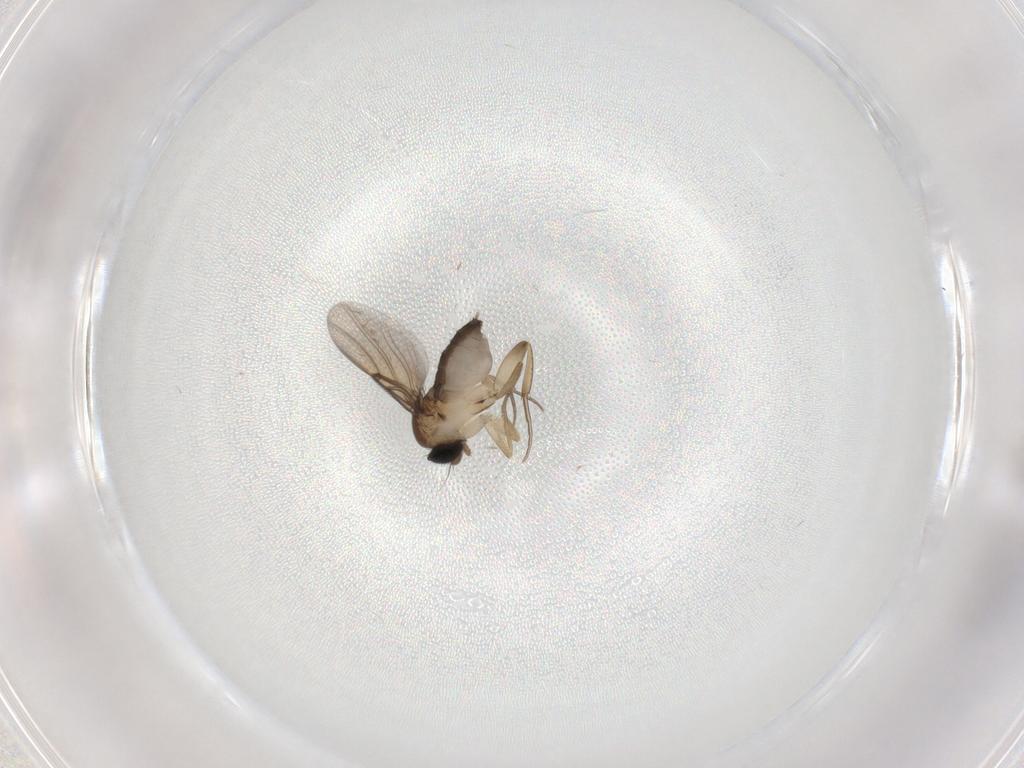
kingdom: Animalia
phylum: Arthropoda
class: Insecta
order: Diptera
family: Phoridae
